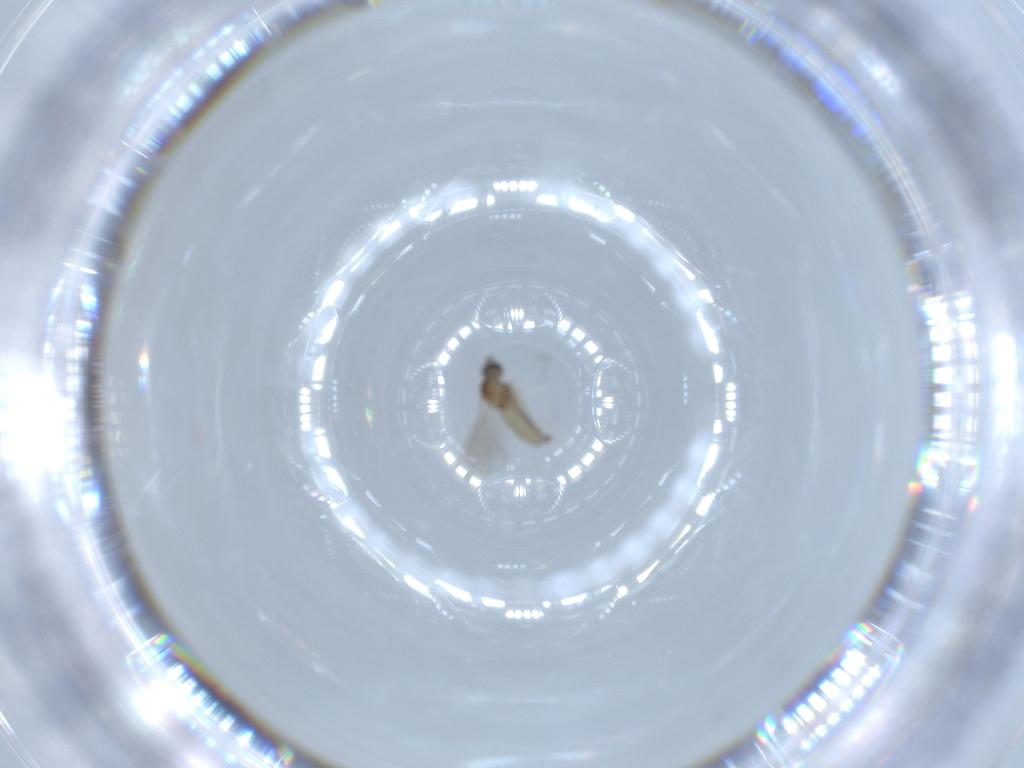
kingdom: Animalia
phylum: Arthropoda
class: Insecta
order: Diptera
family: Cecidomyiidae
